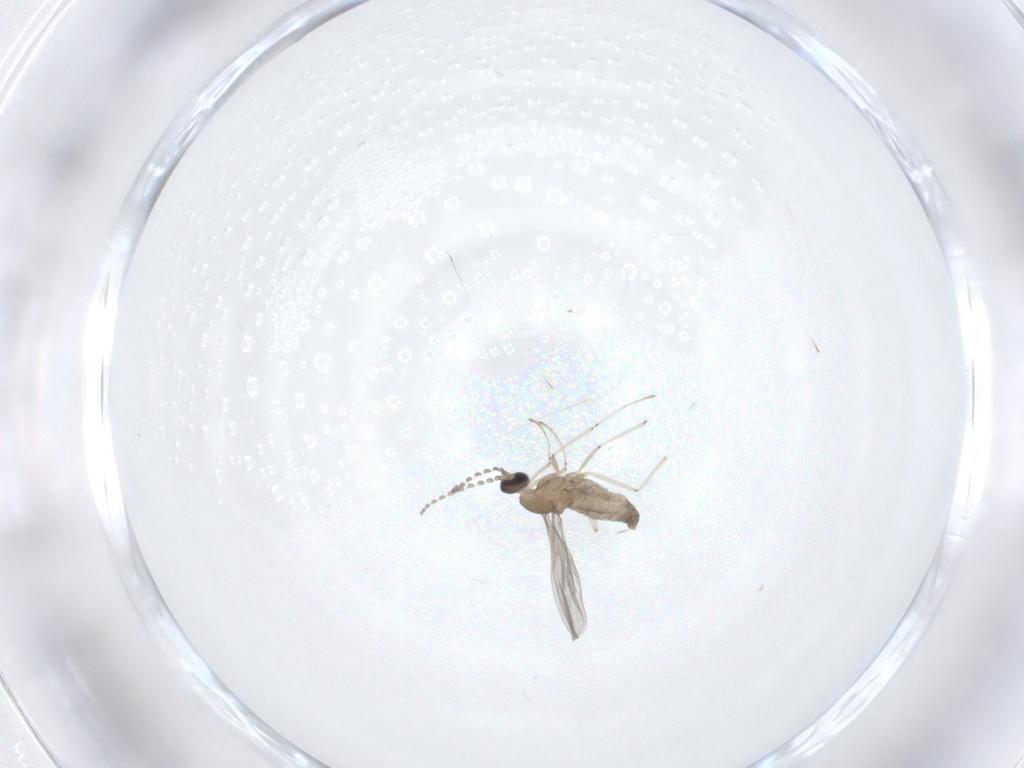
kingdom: Animalia
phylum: Arthropoda
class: Insecta
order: Diptera
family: Cecidomyiidae
